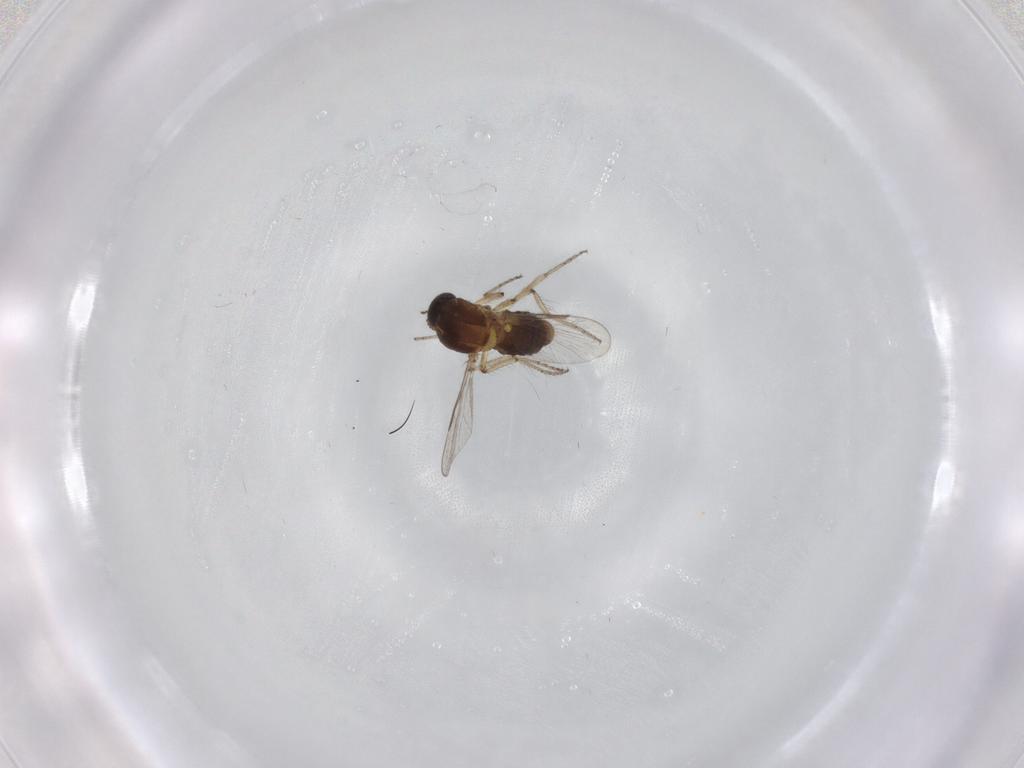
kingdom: Animalia
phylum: Arthropoda
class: Insecta
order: Diptera
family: Ceratopogonidae
